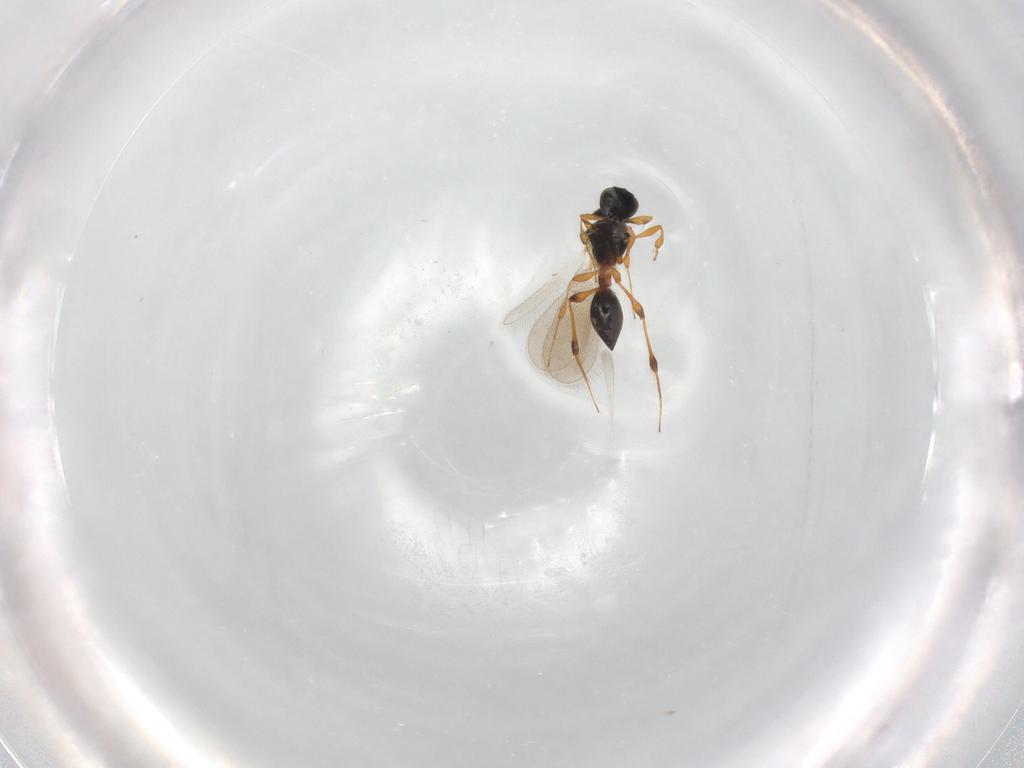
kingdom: Animalia
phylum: Arthropoda
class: Insecta
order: Hymenoptera
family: Platygastridae
